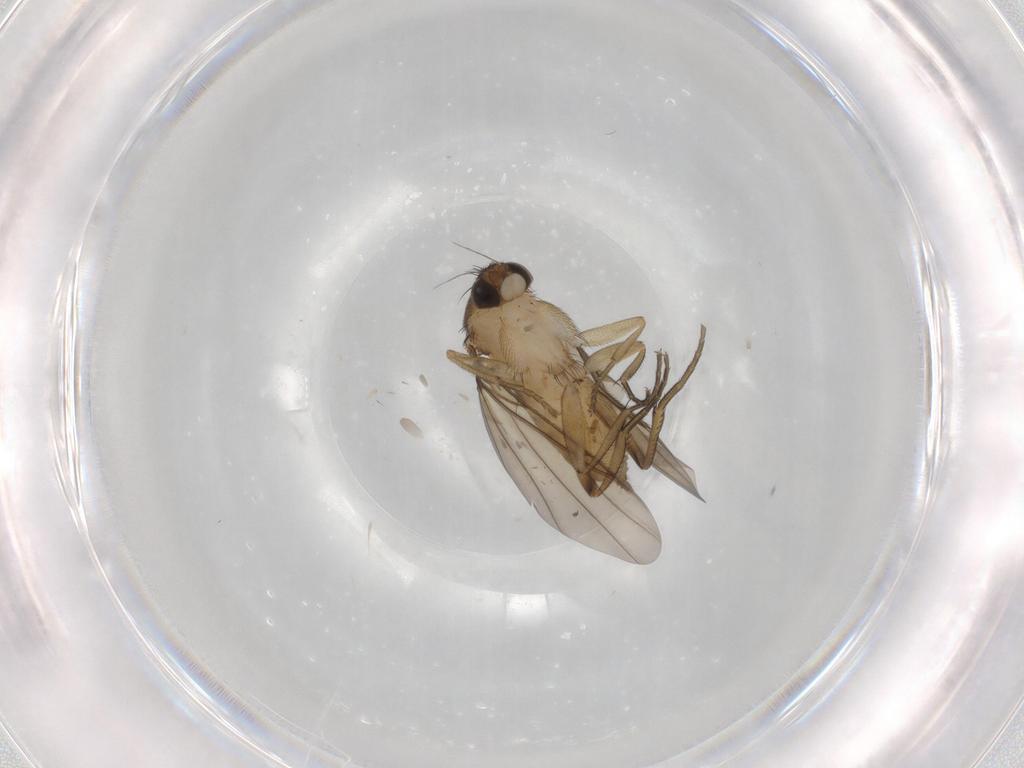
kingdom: Animalia
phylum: Arthropoda
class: Insecta
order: Diptera
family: Phoridae
